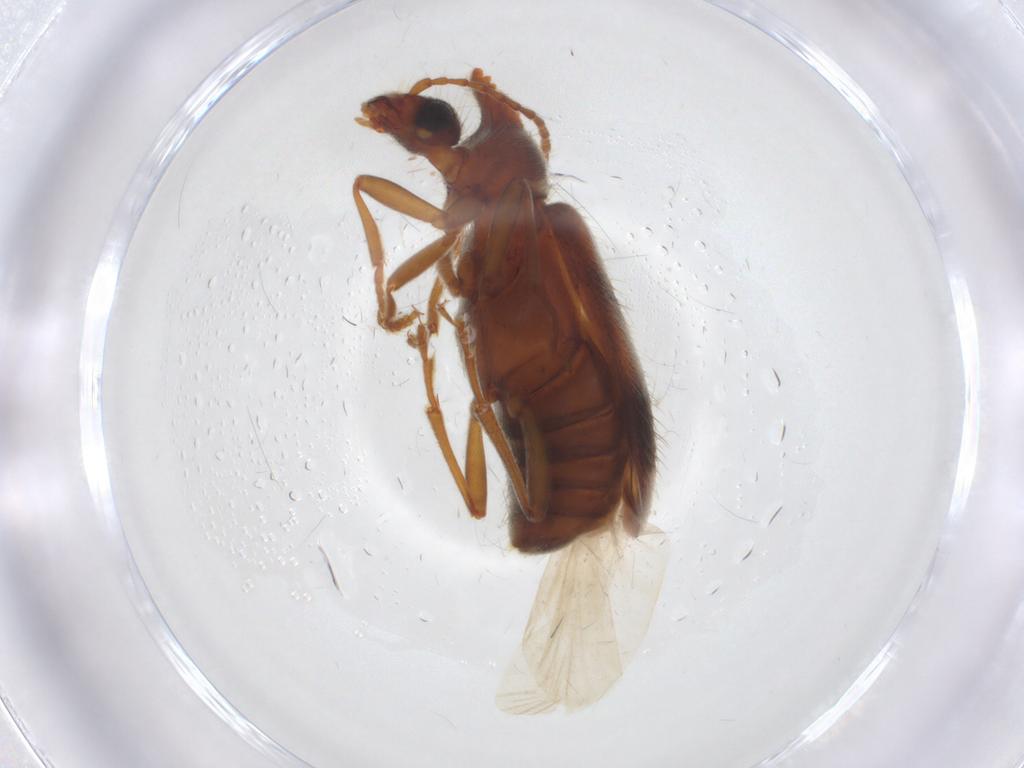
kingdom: Animalia
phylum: Arthropoda
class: Insecta
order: Coleoptera
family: Anthicidae
